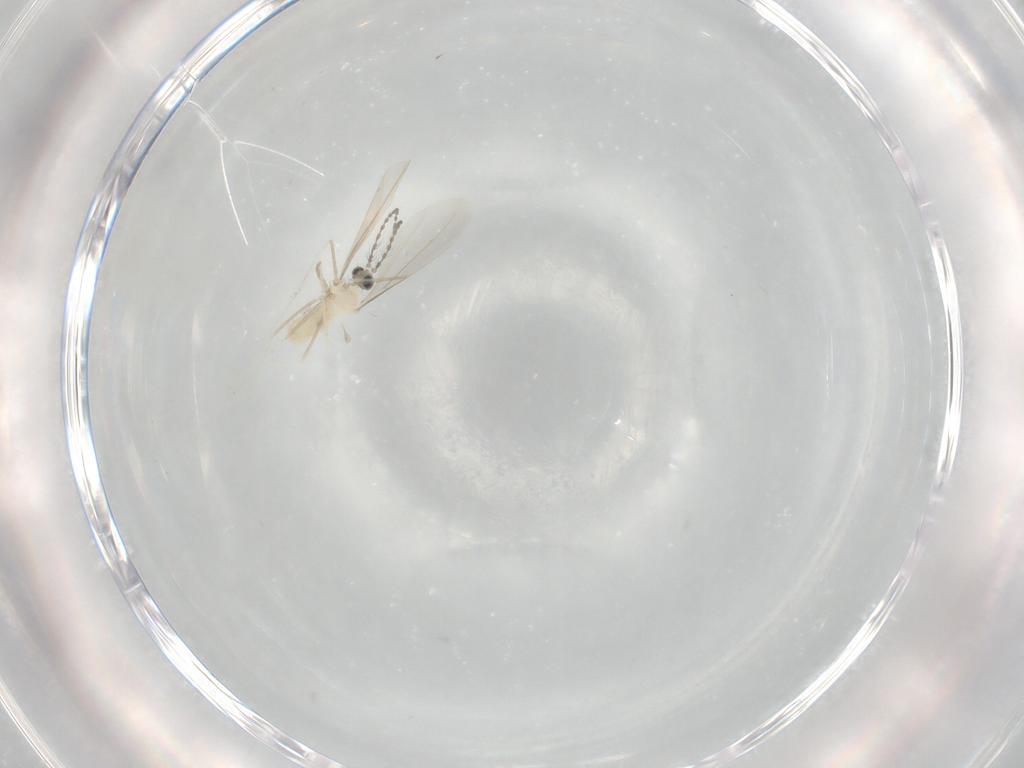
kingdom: Animalia
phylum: Arthropoda
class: Insecta
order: Diptera
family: Cecidomyiidae
